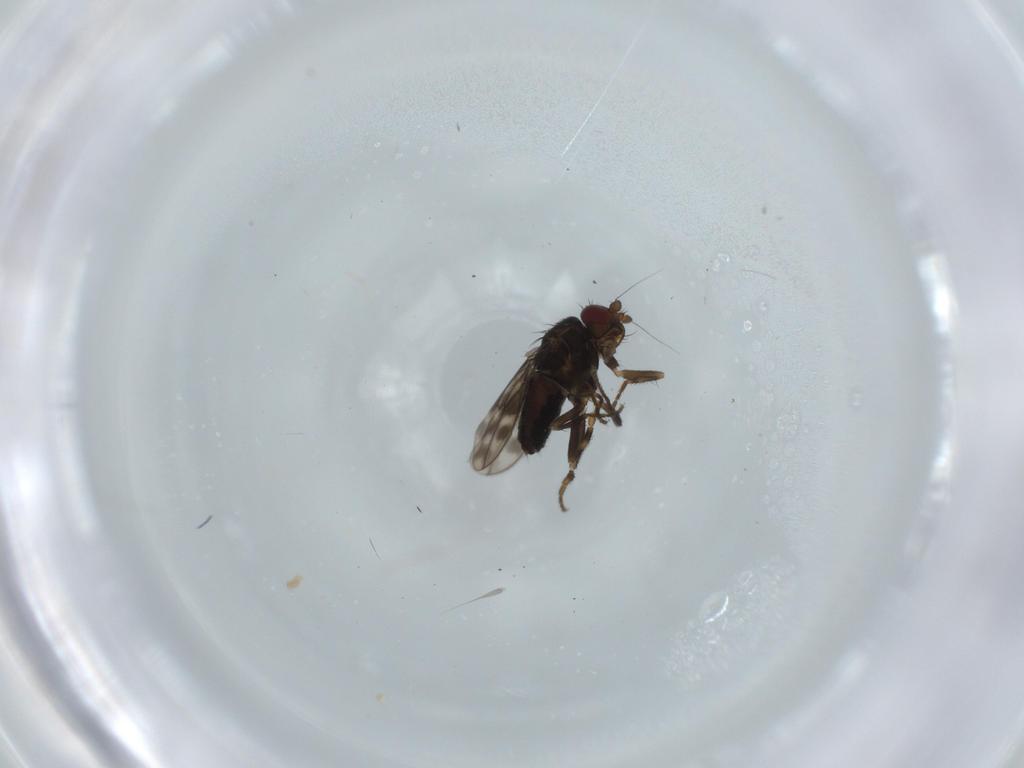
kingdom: Animalia
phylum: Arthropoda
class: Insecta
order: Diptera
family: Sphaeroceridae
